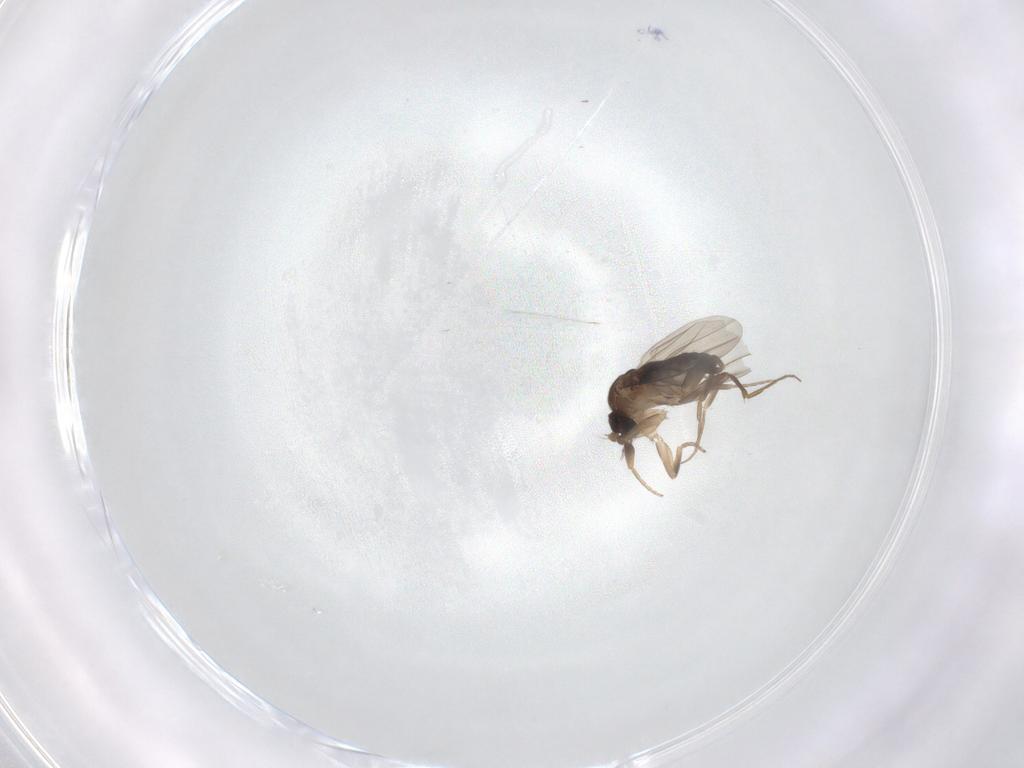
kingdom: Animalia
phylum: Arthropoda
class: Insecta
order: Diptera
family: Phoridae
